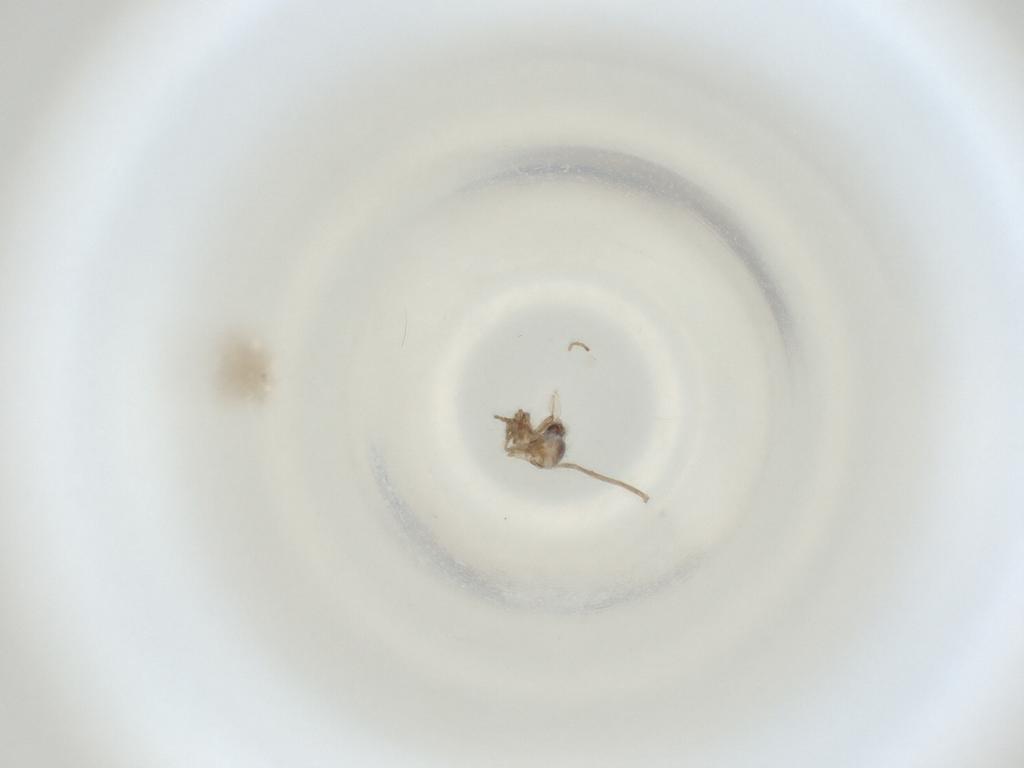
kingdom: Animalia
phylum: Arthropoda
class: Insecta
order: Diptera
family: Cecidomyiidae
